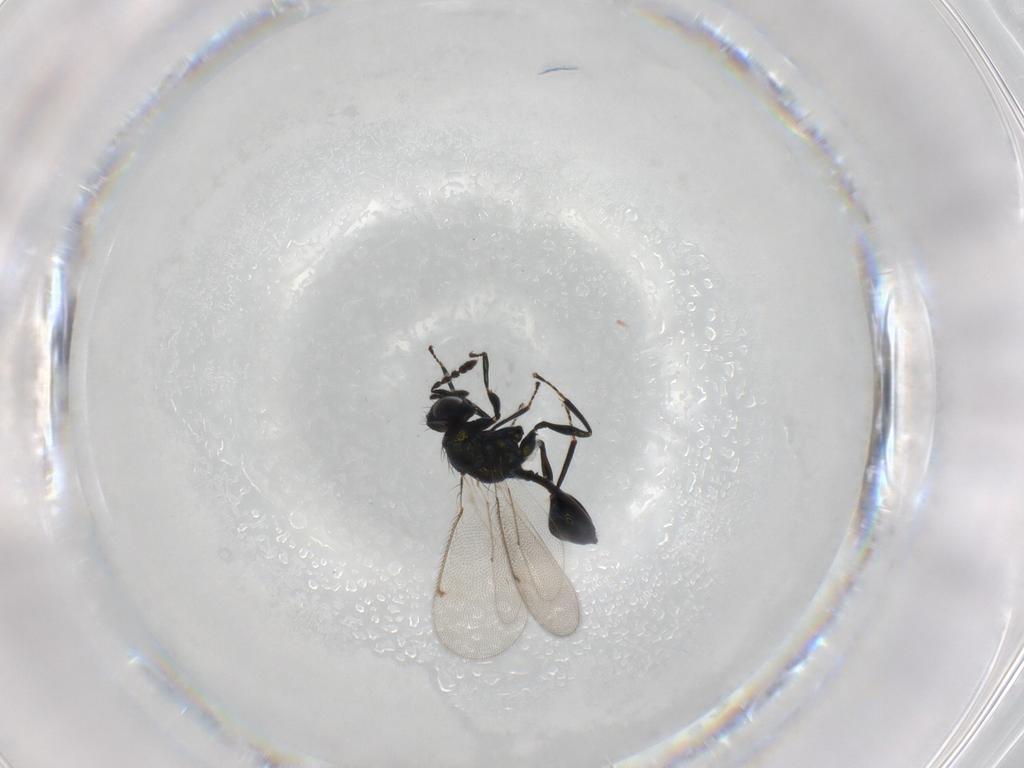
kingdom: Animalia
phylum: Arthropoda
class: Insecta
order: Hymenoptera
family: Eulophidae
